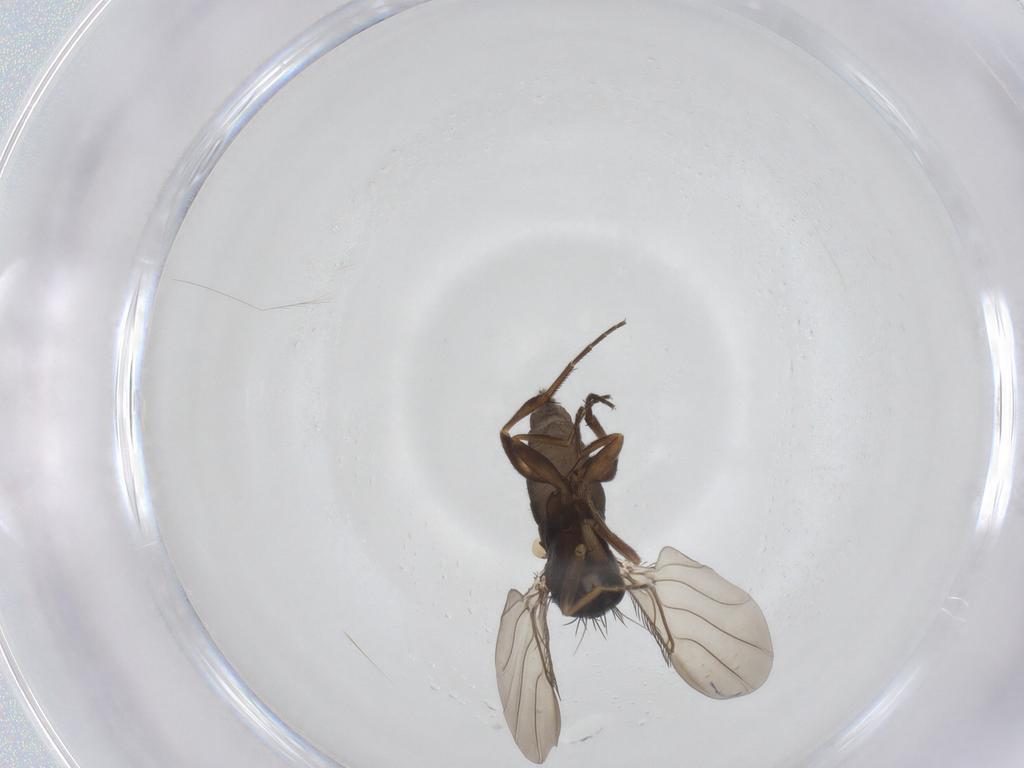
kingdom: Animalia
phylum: Arthropoda
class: Insecta
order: Diptera
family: Phoridae
